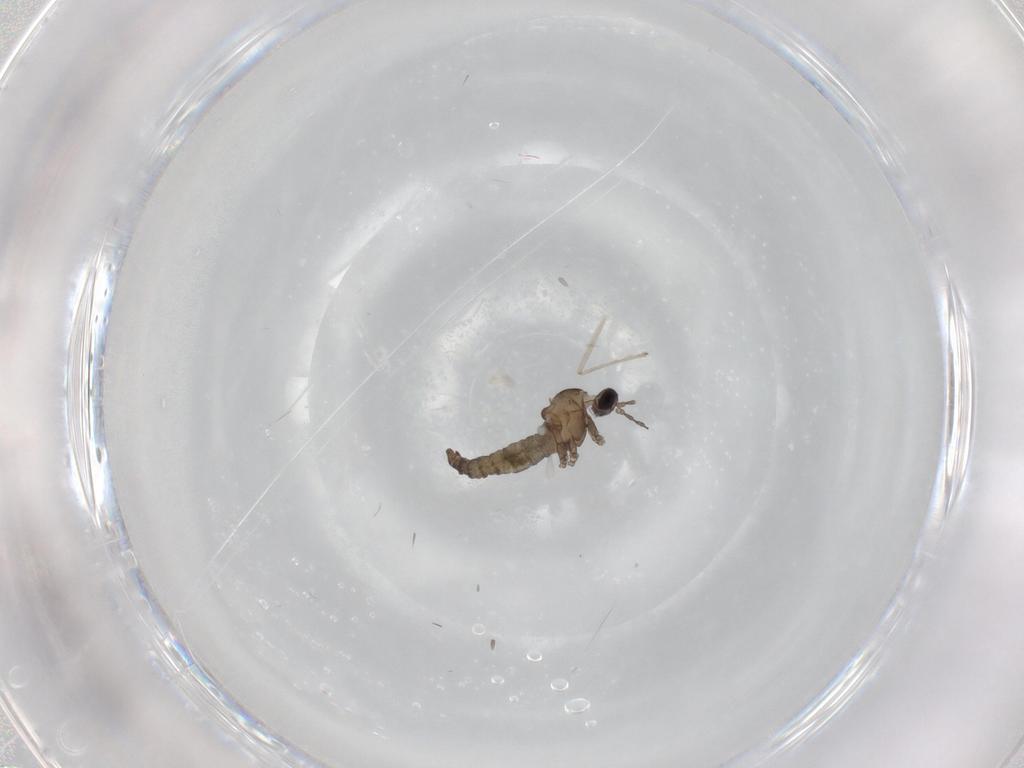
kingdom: Animalia
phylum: Arthropoda
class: Insecta
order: Diptera
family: Cecidomyiidae
